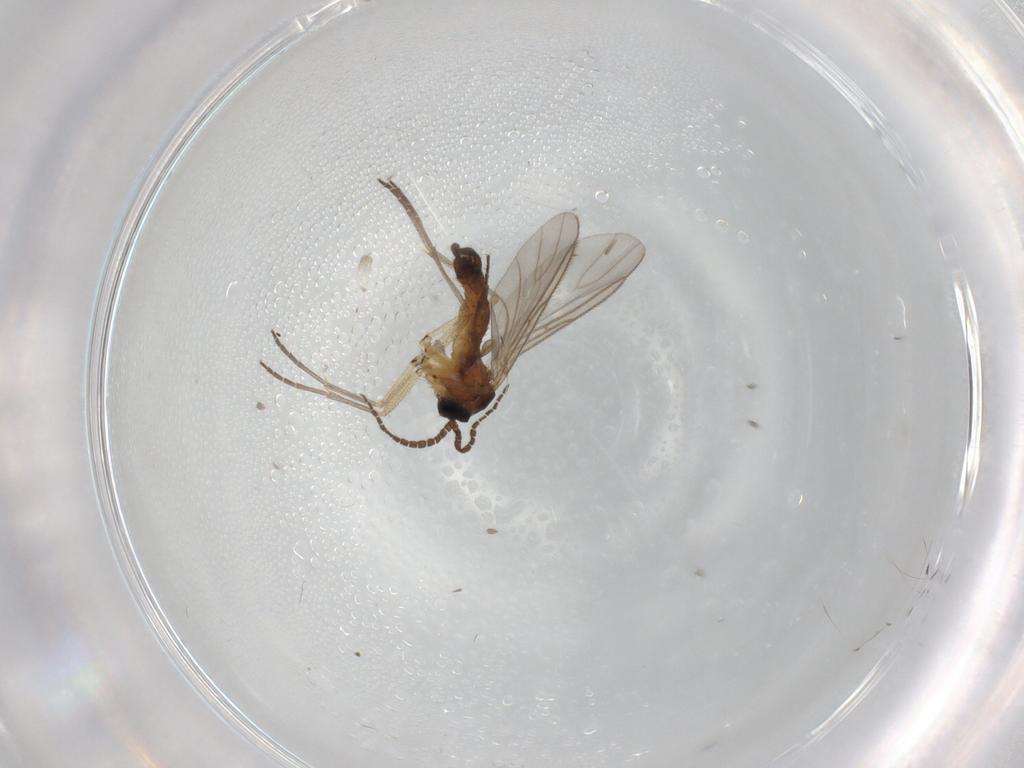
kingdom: Animalia
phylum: Arthropoda
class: Insecta
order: Diptera
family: Sciaridae
